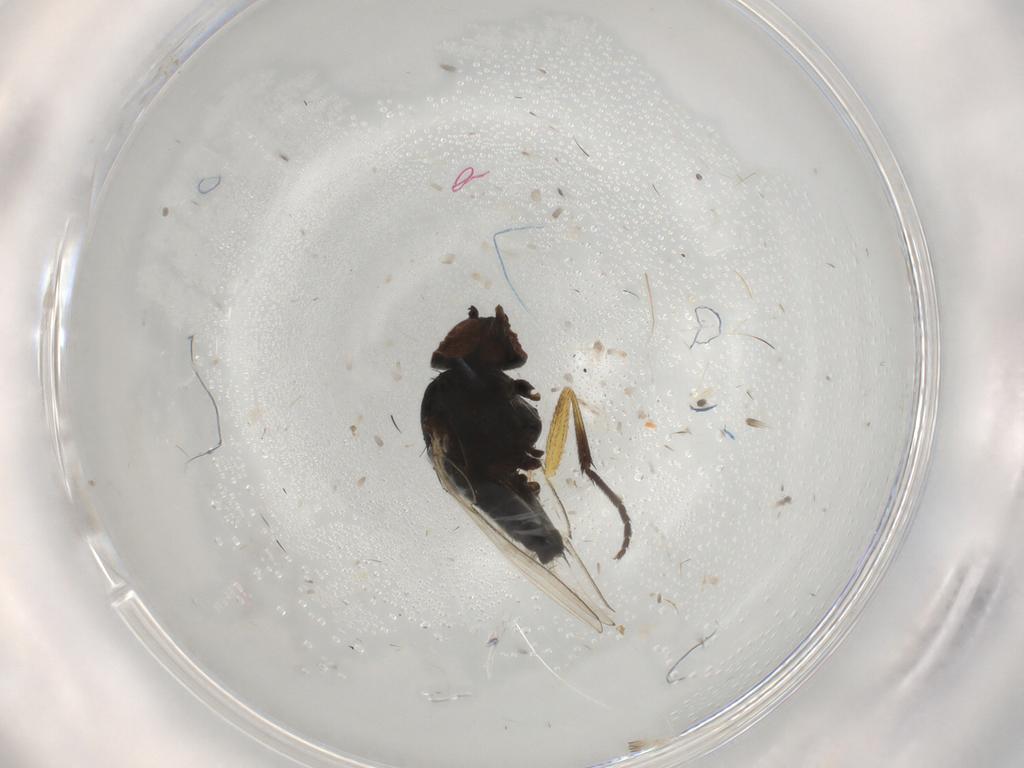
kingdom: Animalia
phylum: Arthropoda
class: Insecta
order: Diptera
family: Milichiidae
